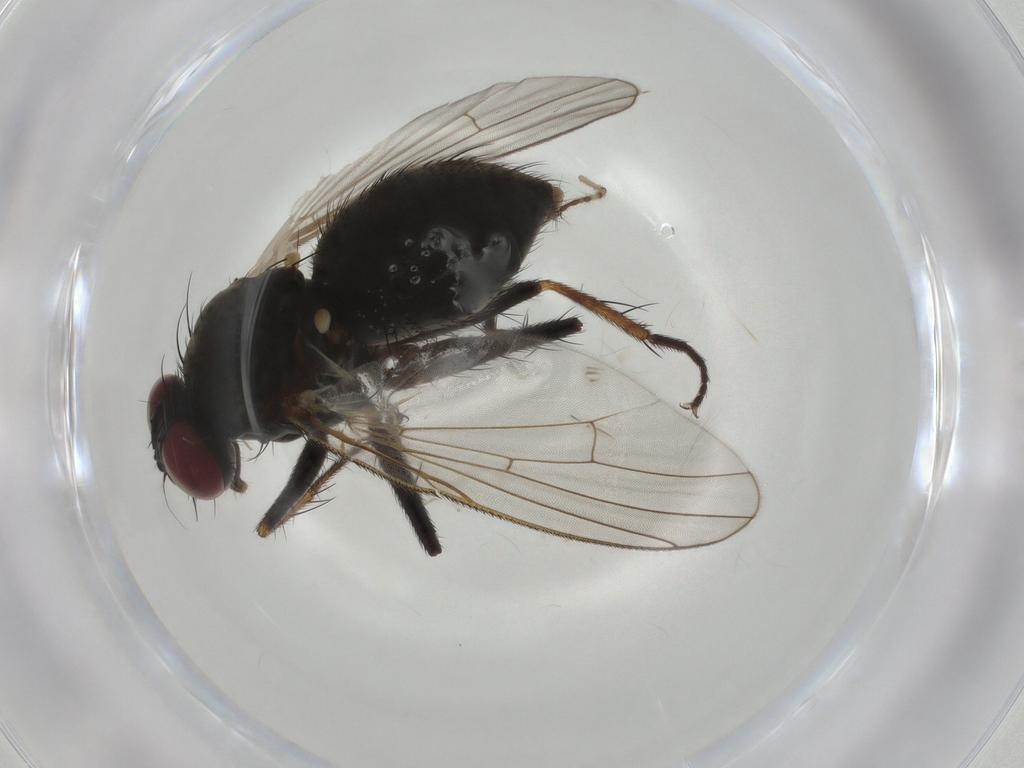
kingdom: Animalia
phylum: Arthropoda
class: Insecta
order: Diptera
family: Muscidae
